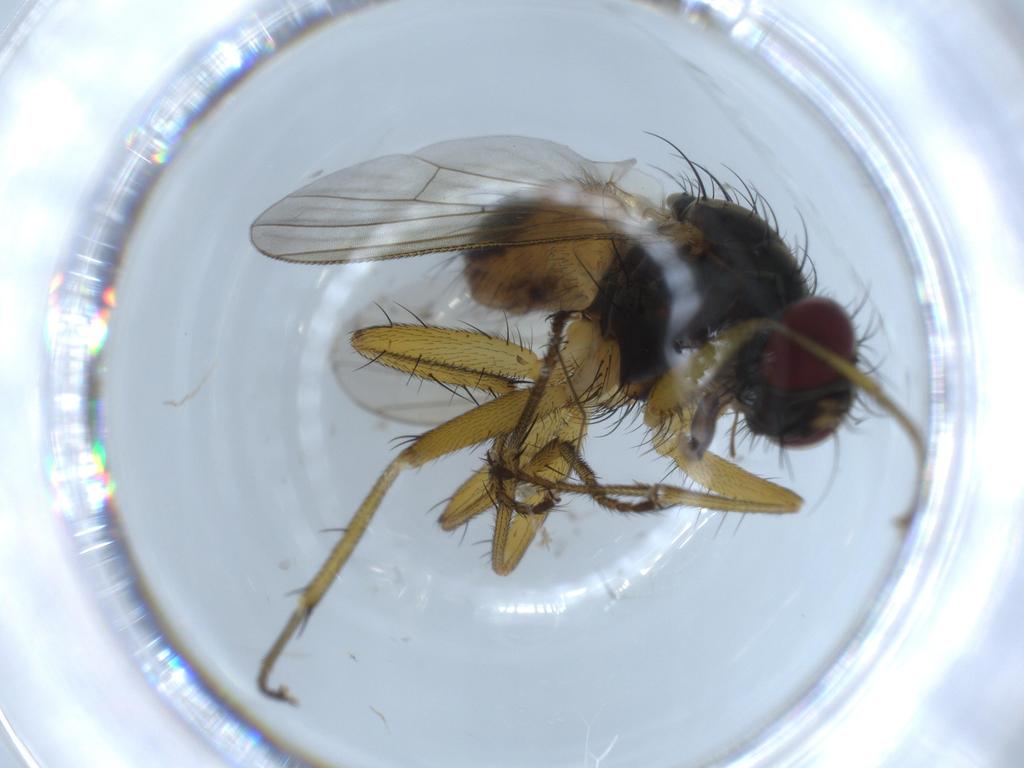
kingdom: Animalia
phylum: Arthropoda
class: Insecta
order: Diptera
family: Muscidae
